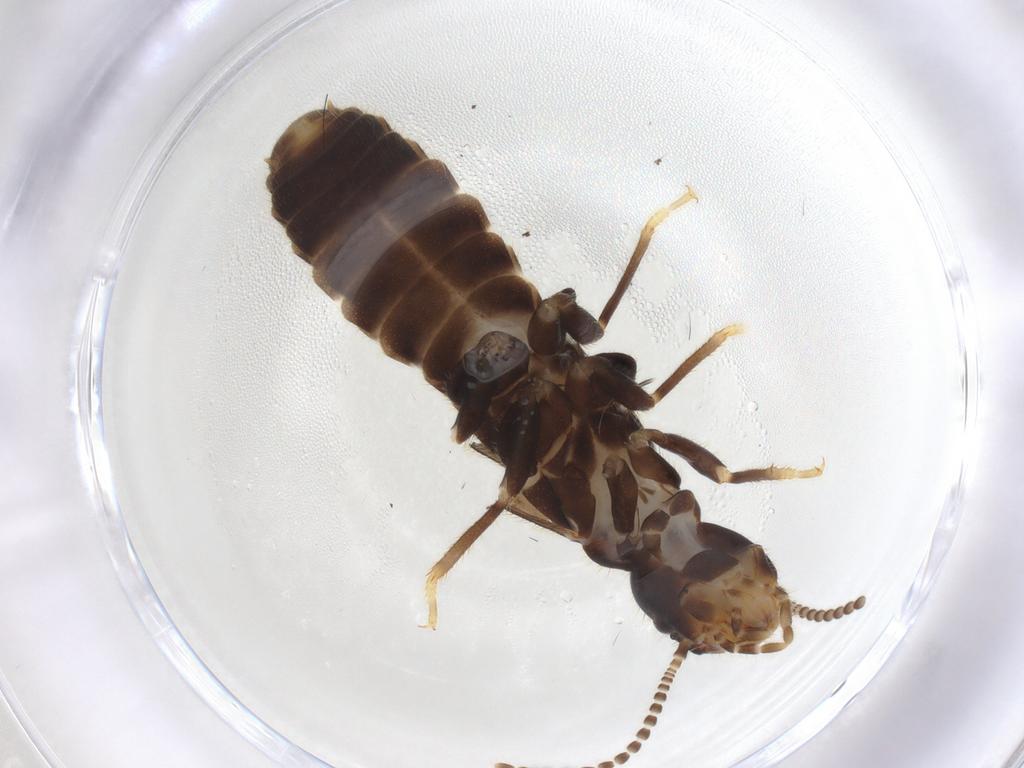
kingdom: Animalia
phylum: Arthropoda
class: Insecta
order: Blattodea
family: Rhinotermitidae
